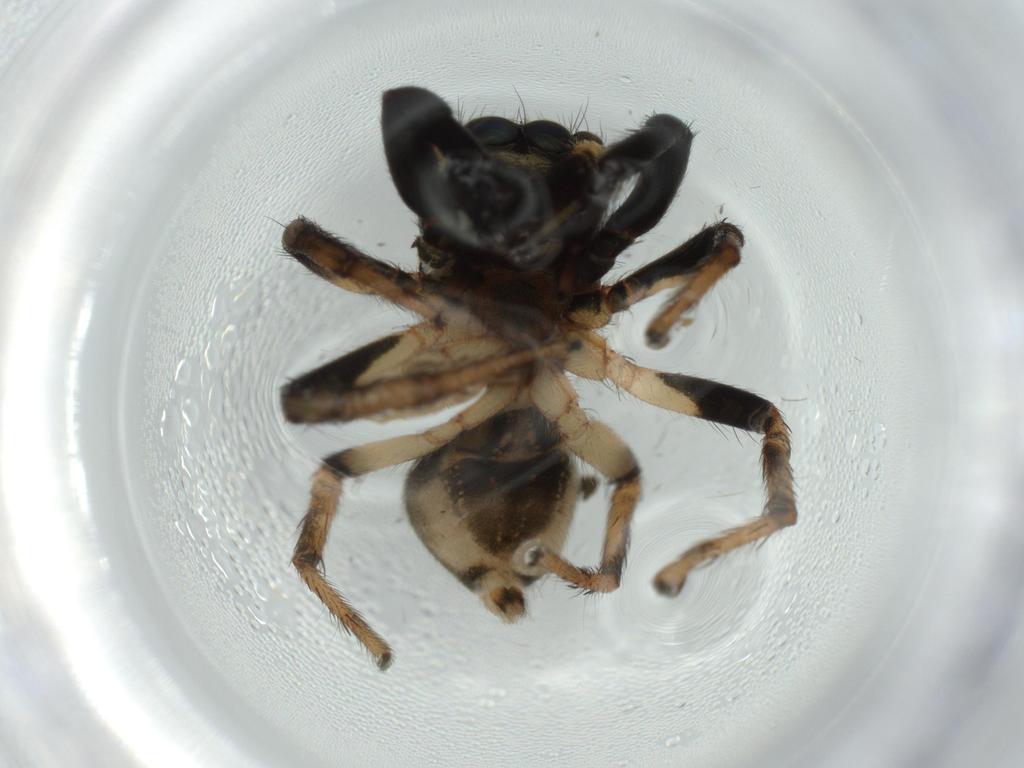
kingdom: Animalia
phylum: Arthropoda
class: Arachnida
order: Araneae
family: Salticidae
